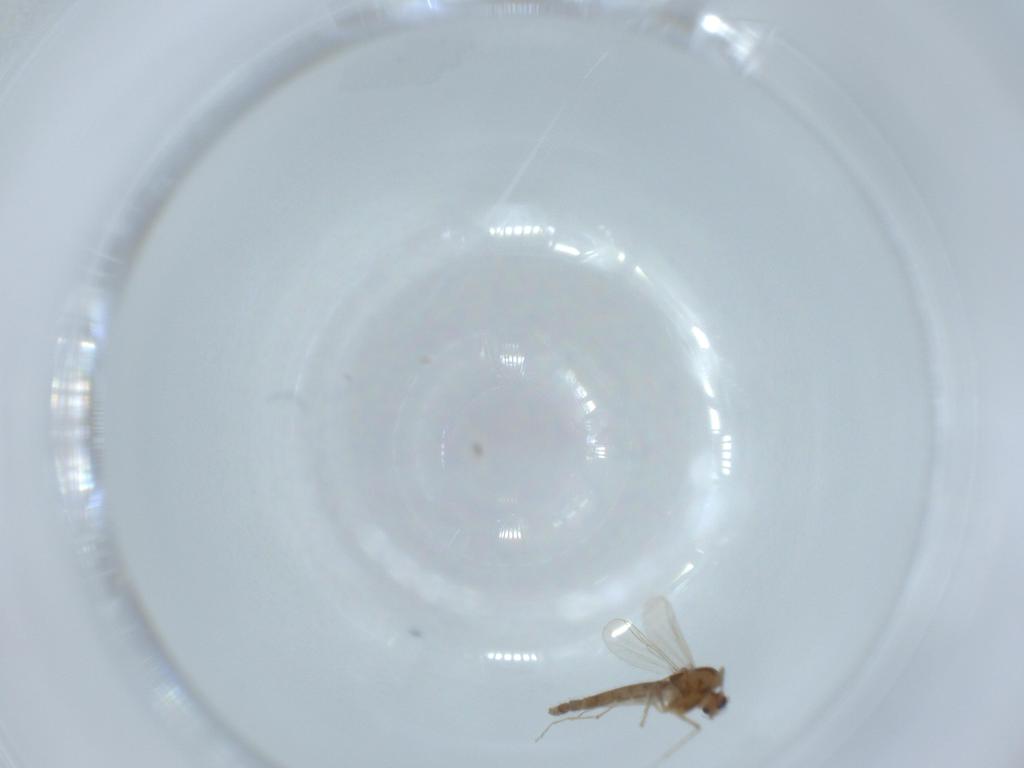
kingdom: Animalia
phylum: Arthropoda
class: Insecta
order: Diptera
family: Chironomidae
